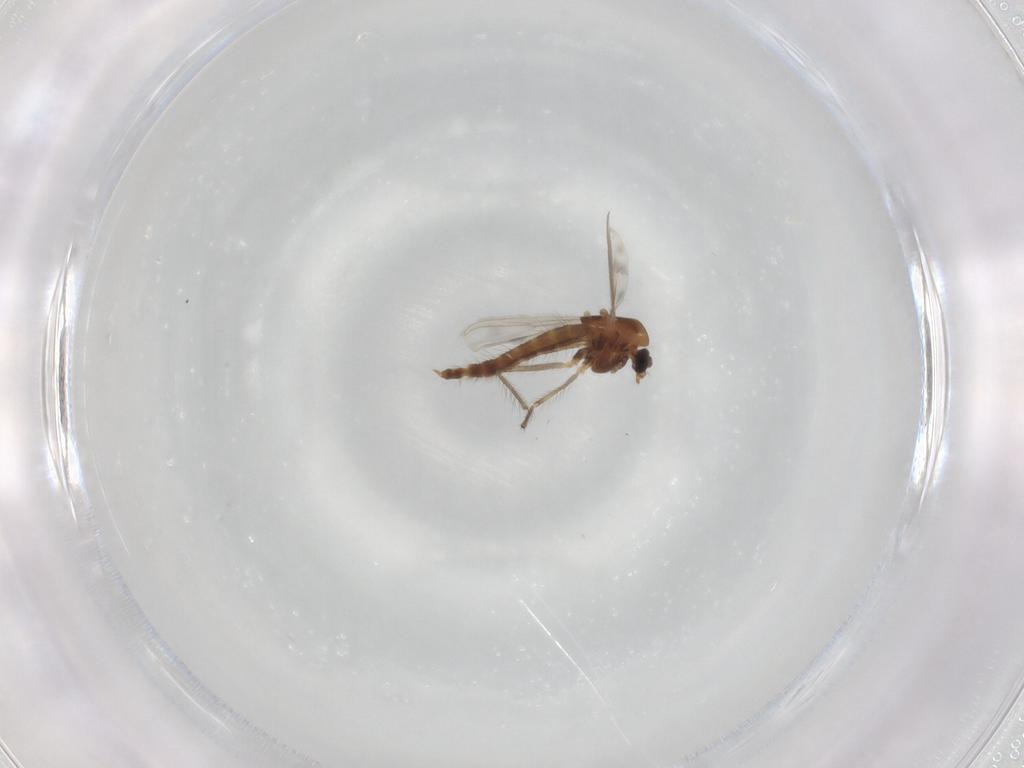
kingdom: Animalia
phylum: Arthropoda
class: Insecta
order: Diptera
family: Chironomidae
